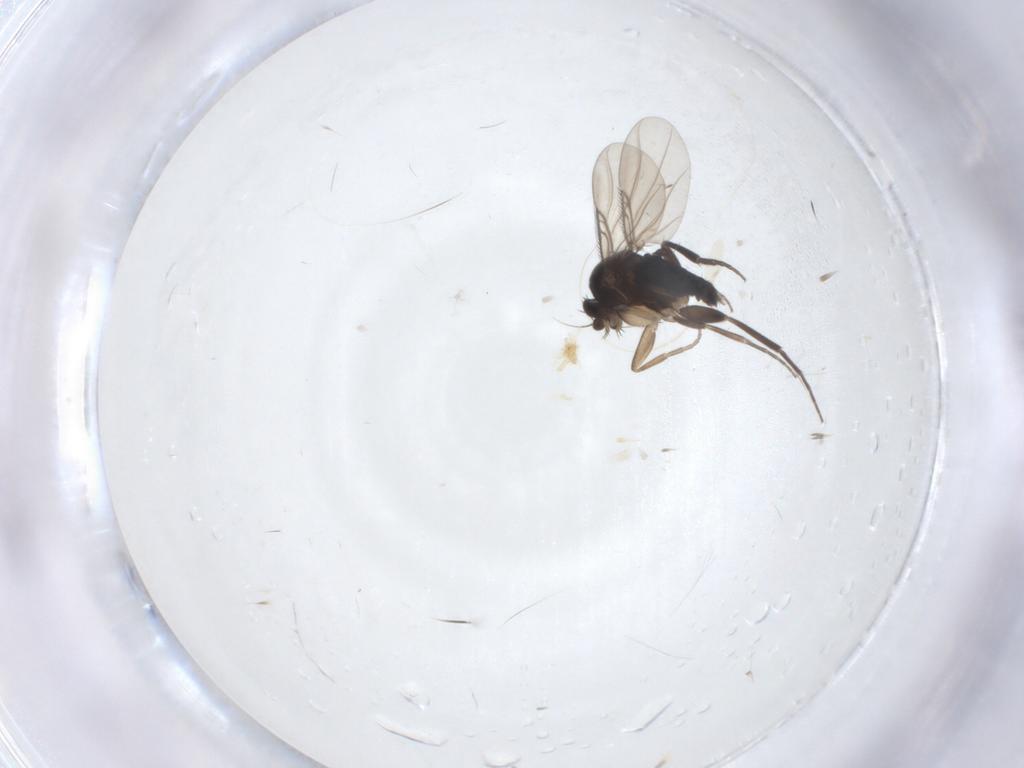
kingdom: Animalia
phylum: Arthropoda
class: Insecta
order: Diptera
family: Phoridae
